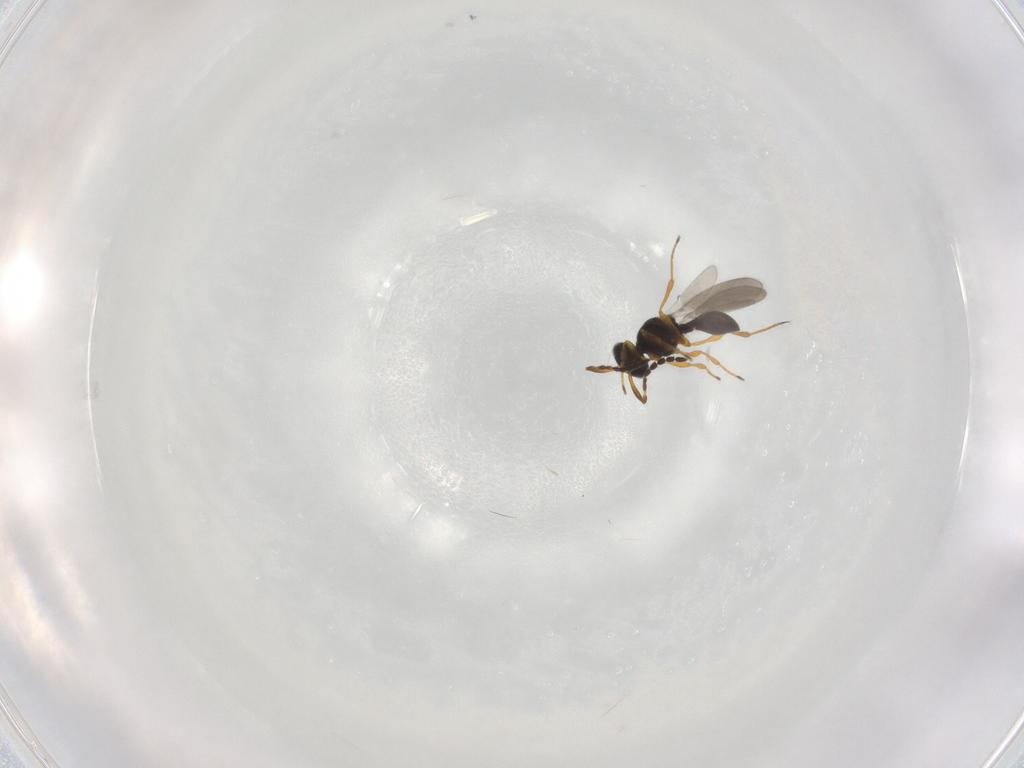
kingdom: Animalia
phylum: Arthropoda
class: Insecta
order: Hymenoptera
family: Platygastridae
